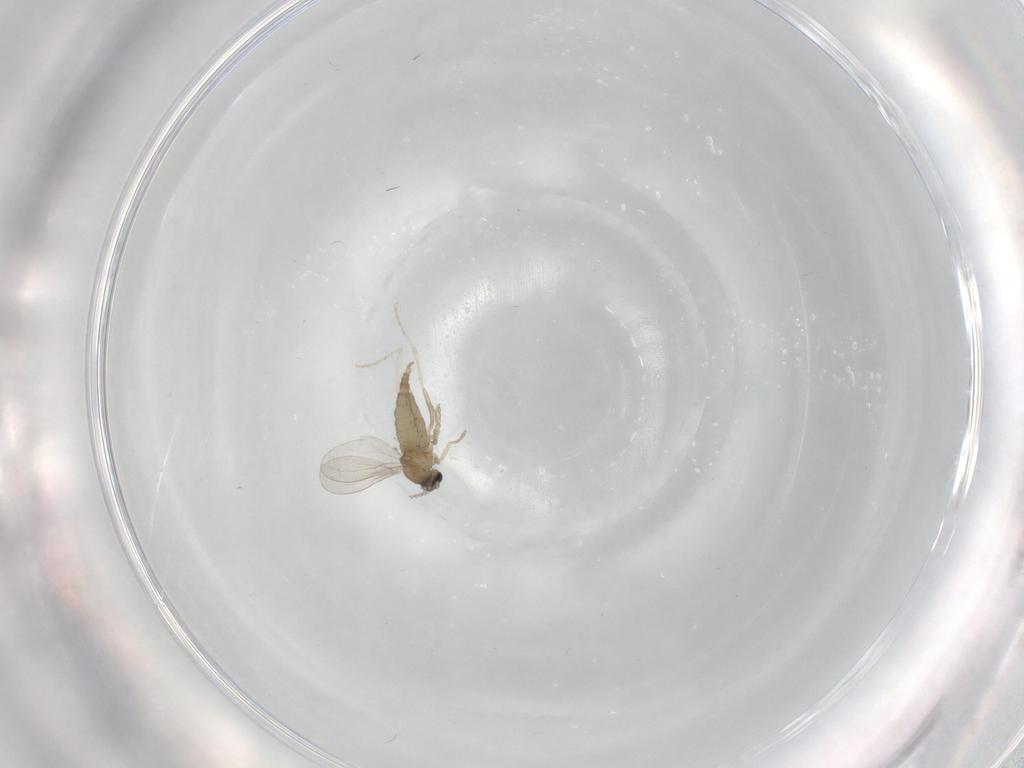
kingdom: Animalia
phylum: Arthropoda
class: Insecta
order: Diptera
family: Cecidomyiidae
